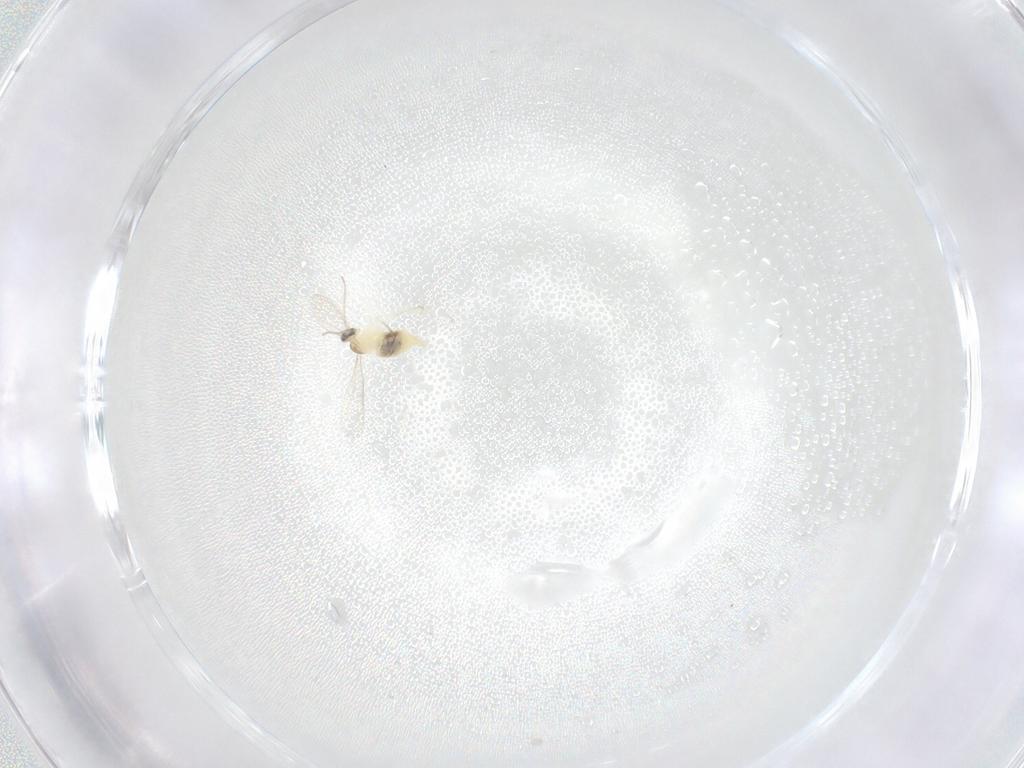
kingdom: Animalia
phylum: Arthropoda
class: Insecta
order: Diptera
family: Cecidomyiidae
